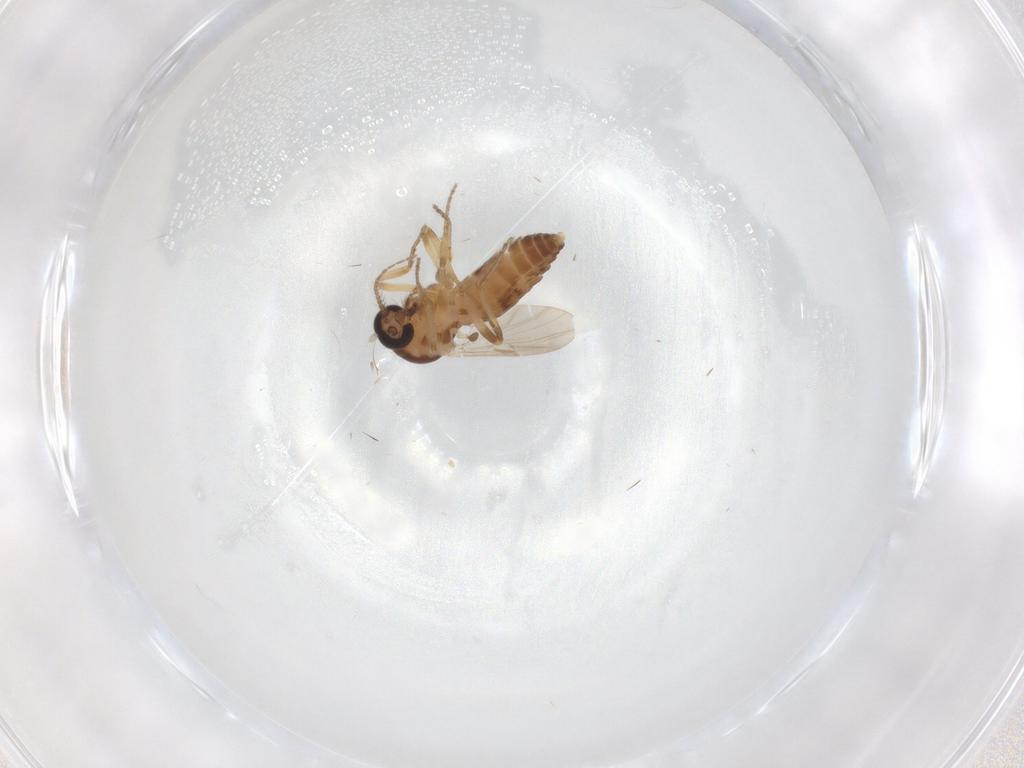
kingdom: Animalia
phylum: Arthropoda
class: Insecta
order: Diptera
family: Ceratopogonidae
